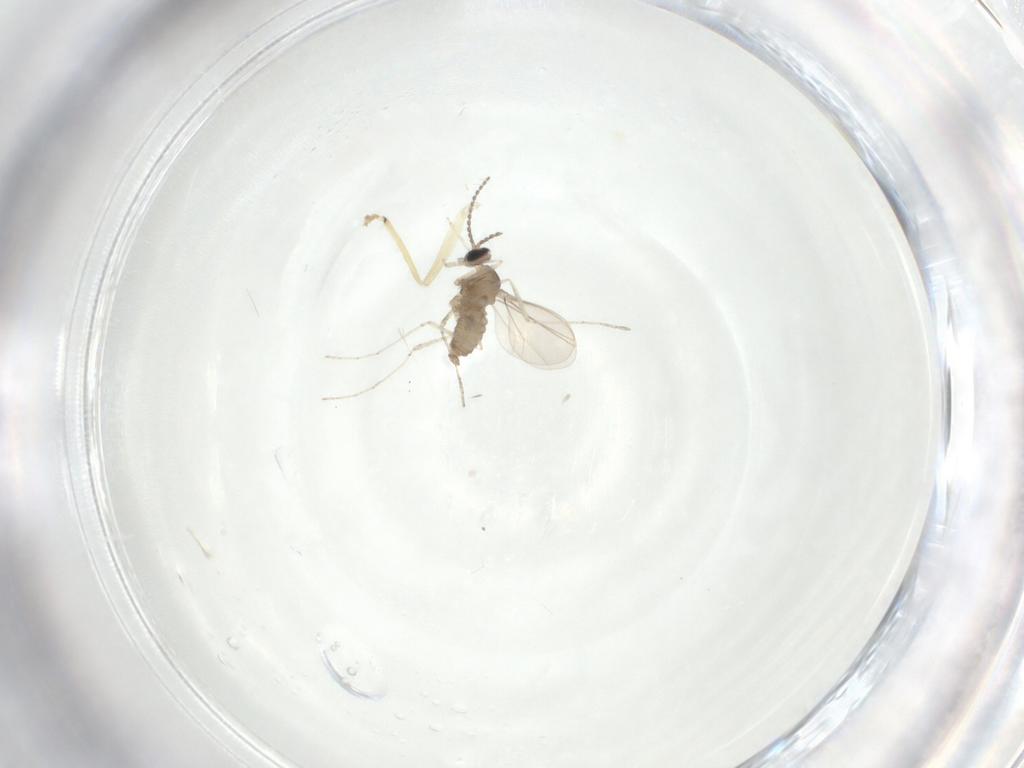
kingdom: Animalia
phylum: Arthropoda
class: Insecta
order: Diptera
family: Cecidomyiidae
